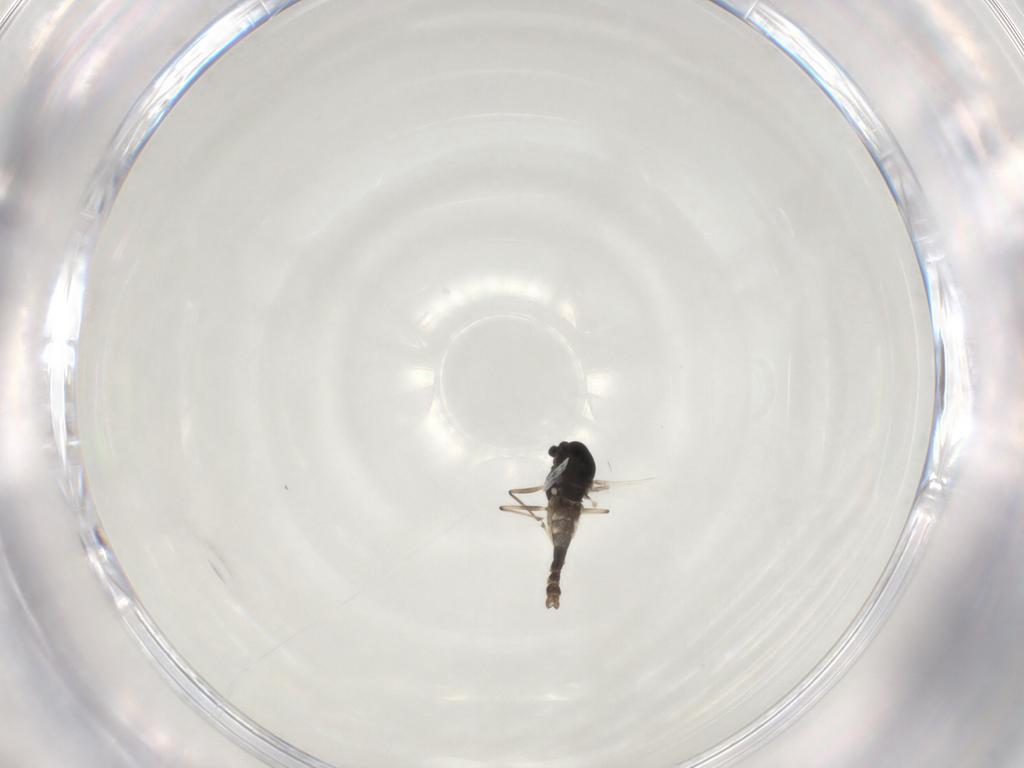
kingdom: Animalia
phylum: Arthropoda
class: Insecta
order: Diptera
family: Chironomidae
